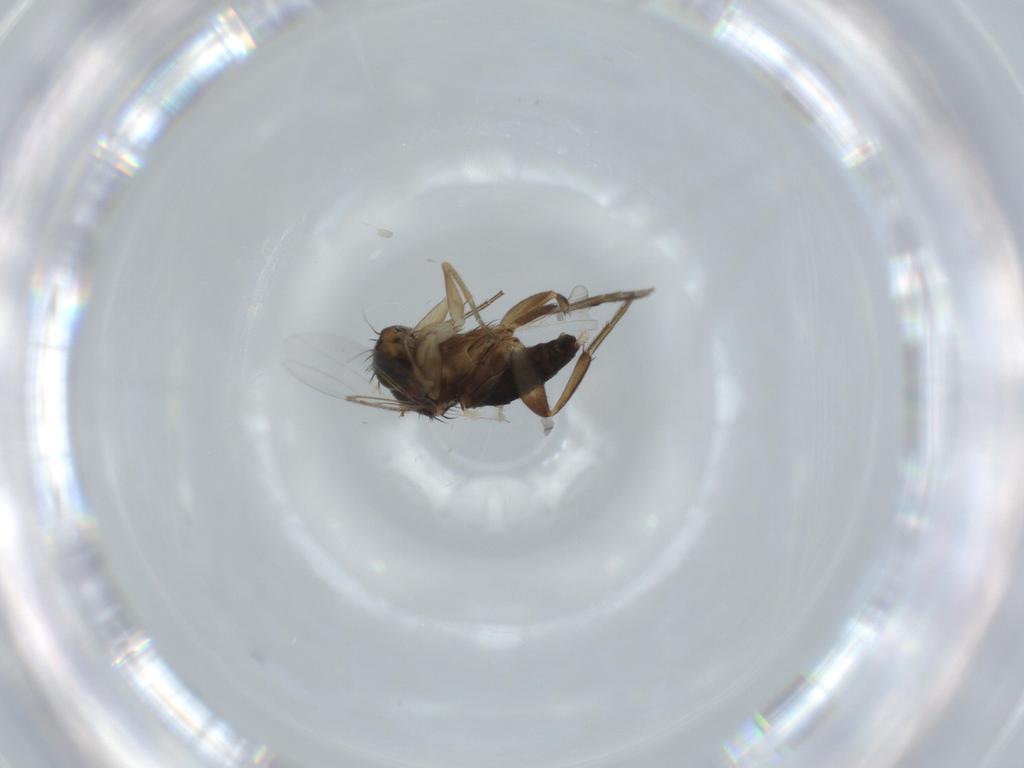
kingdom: Animalia
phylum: Arthropoda
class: Insecta
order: Diptera
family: Phoridae
